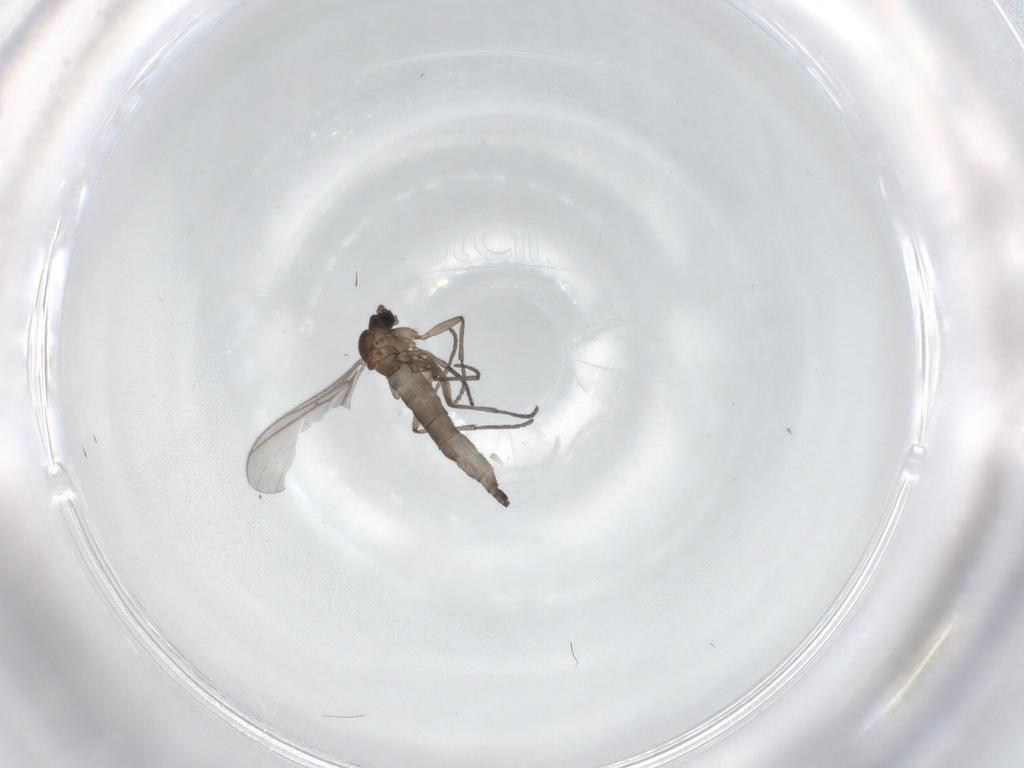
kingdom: Animalia
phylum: Arthropoda
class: Insecta
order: Diptera
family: Sciaridae
